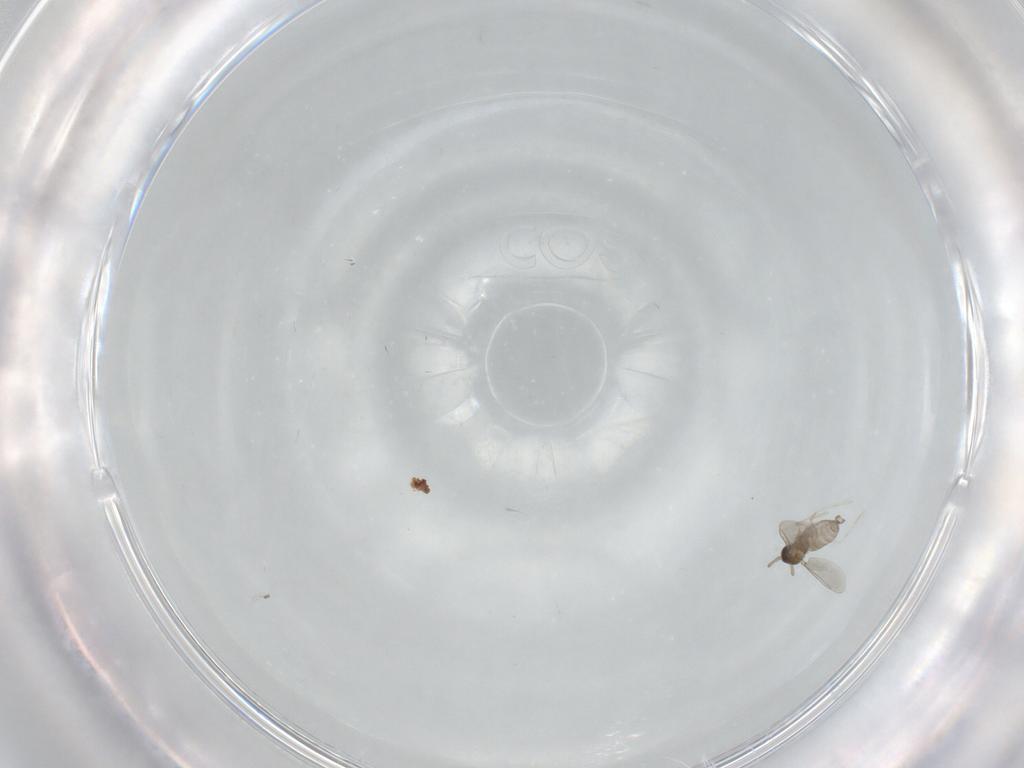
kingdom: Animalia
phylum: Arthropoda
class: Insecta
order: Diptera
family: Cecidomyiidae
